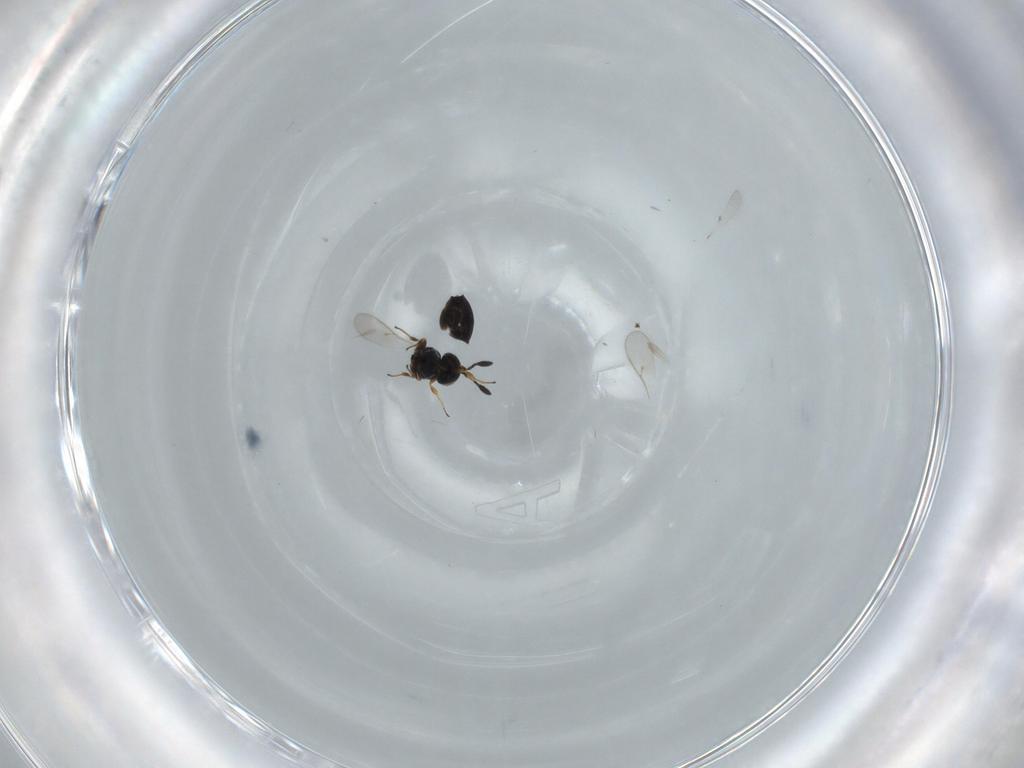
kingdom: Animalia
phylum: Arthropoda
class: Insecta
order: Hymenoptera
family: Scelionidae
